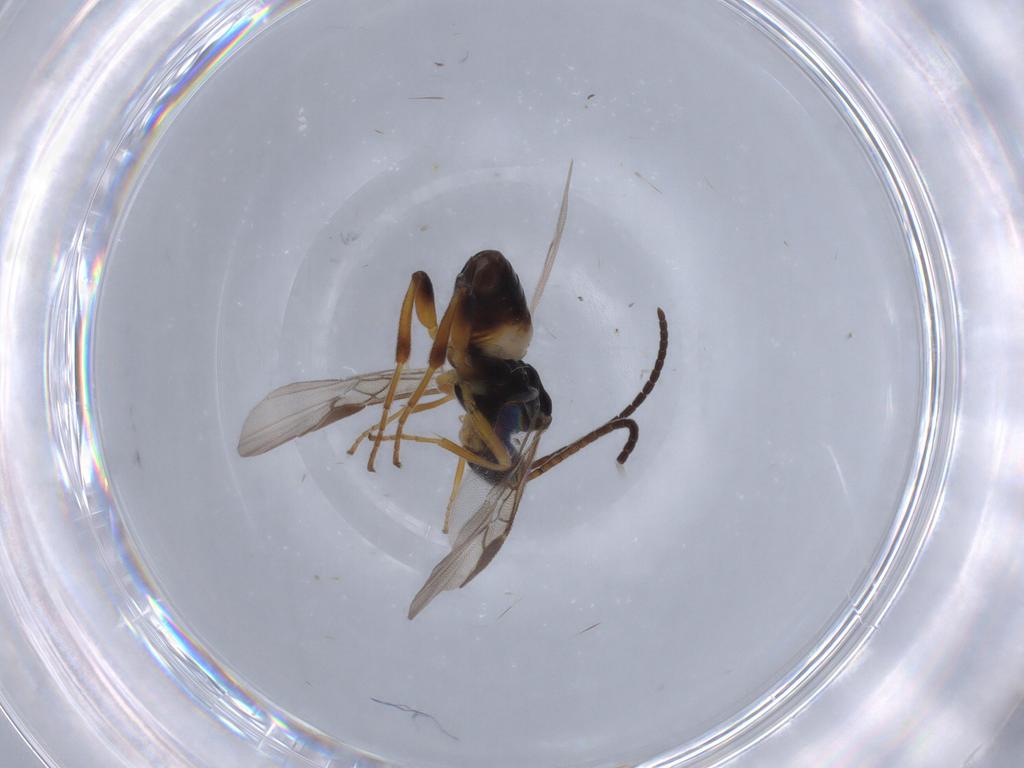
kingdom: Animalia
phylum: Arthropoda
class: Insecta
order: Hymenoptera
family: Braconidae
